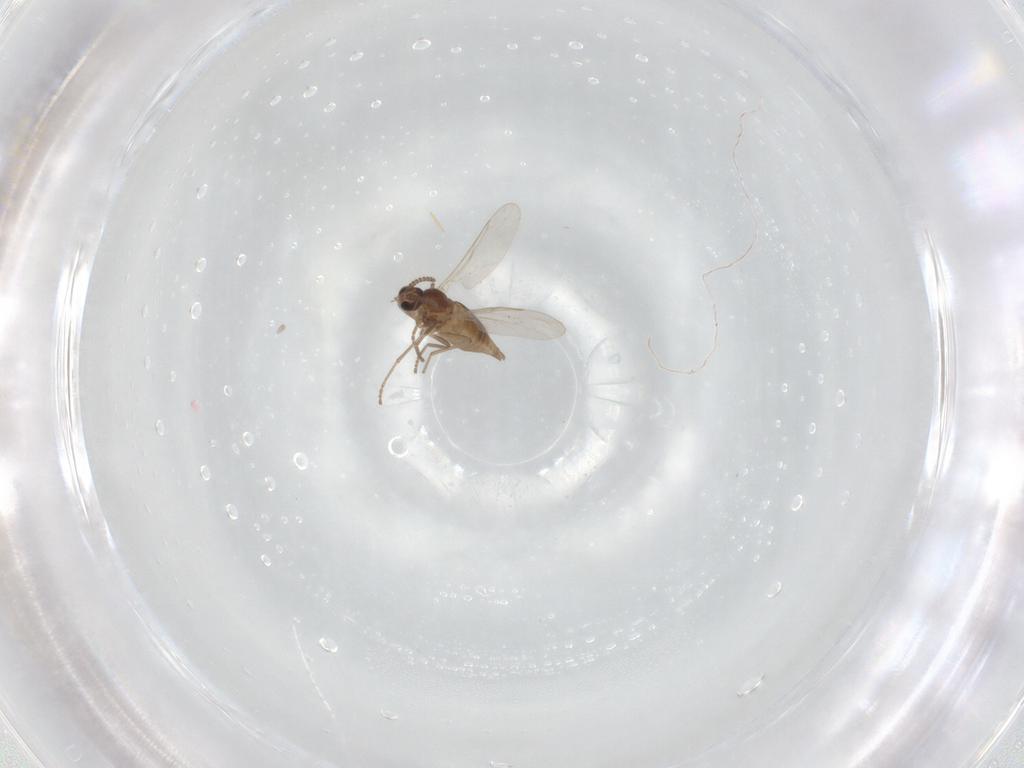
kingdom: Animalia
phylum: Arthropoda
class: Insecta
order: Diptera
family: Cecidomyiidae
